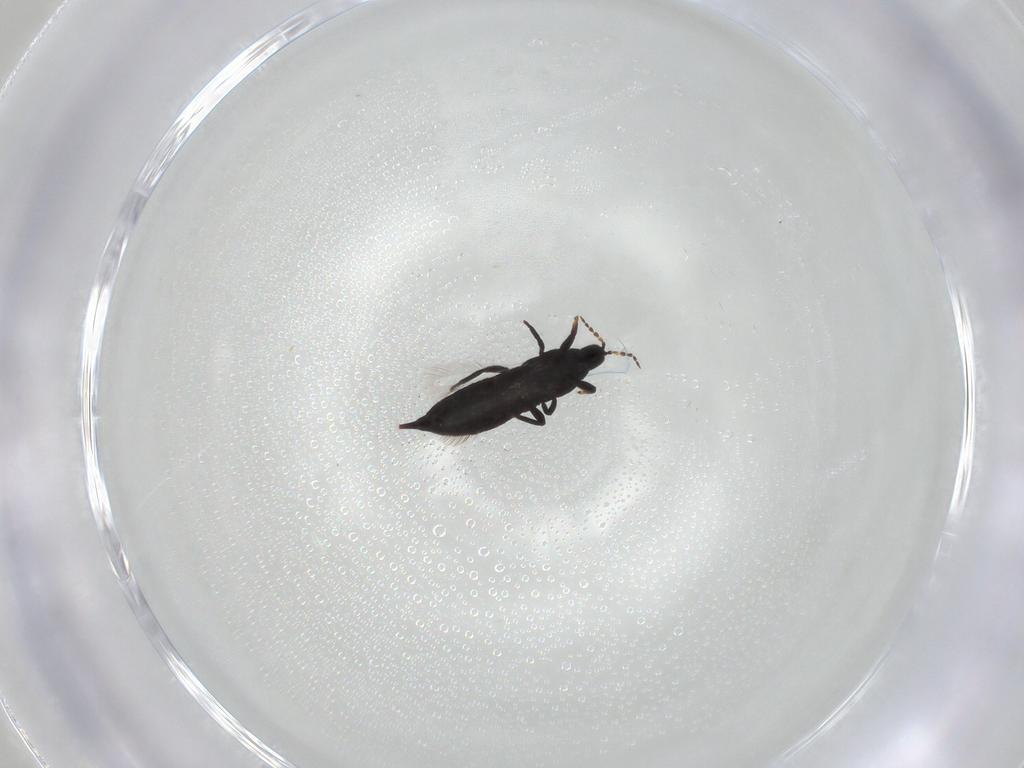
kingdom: Animalia
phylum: Arthropoda
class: Insecta
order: Thysanoptera
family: Phlaeothripidae
